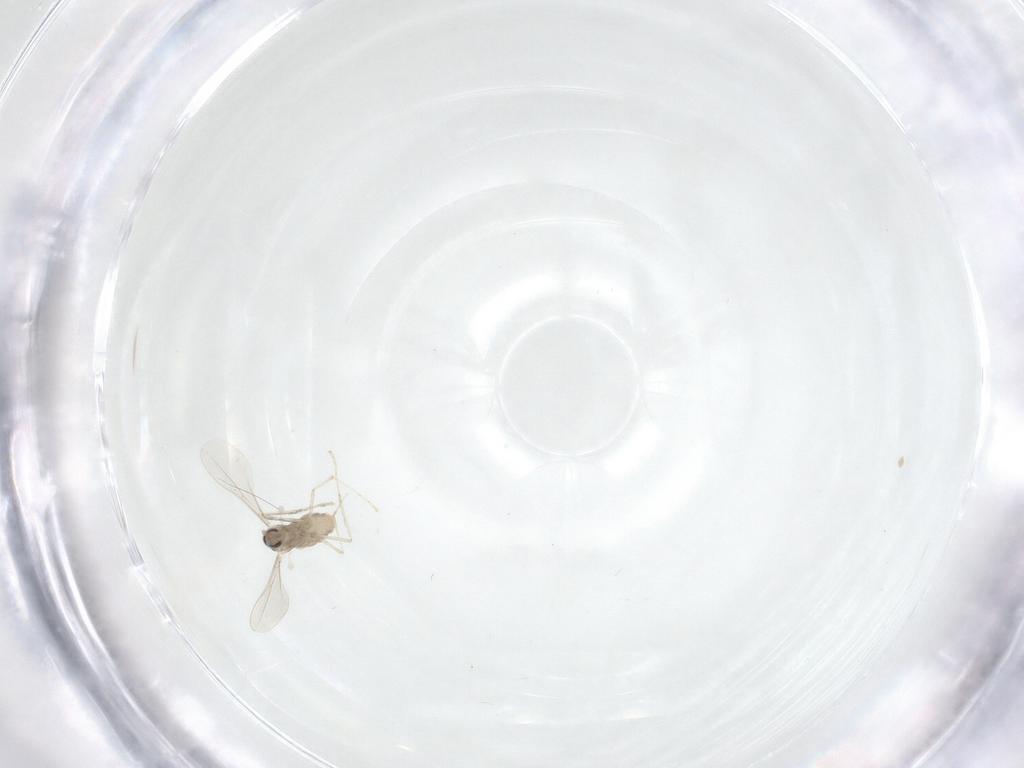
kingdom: Animalia
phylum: Arthropoda
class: Insecta
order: Diptera
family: Cecidomyiidae
